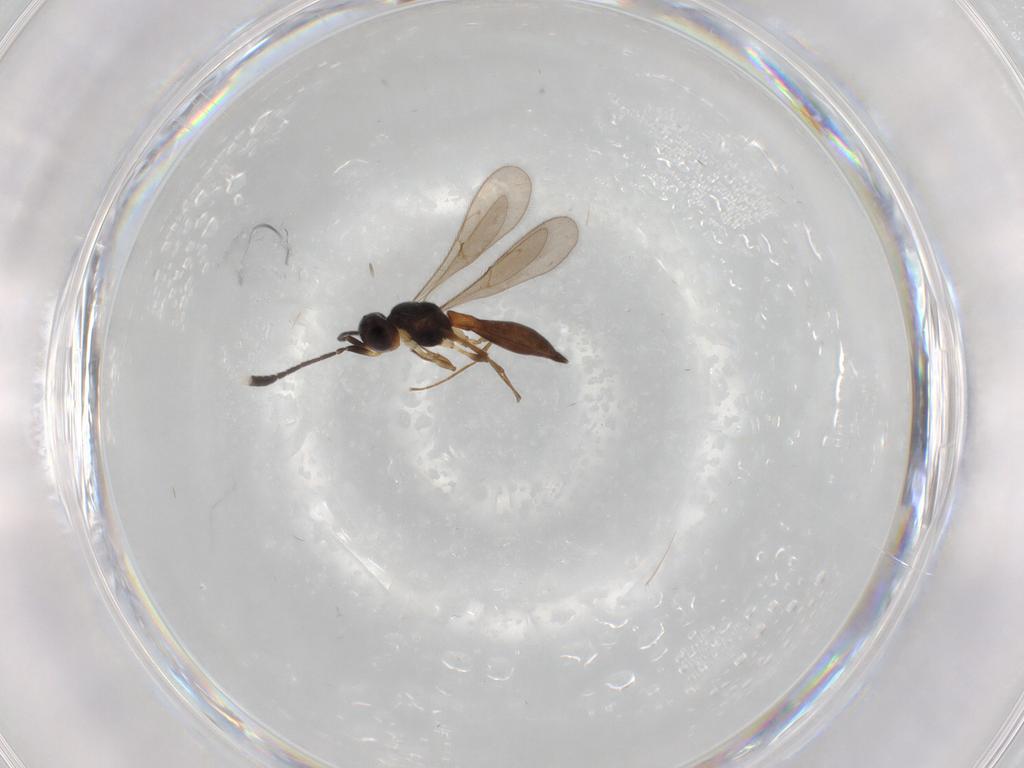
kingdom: Animalia
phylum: Arthropoda
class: Insecta
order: Hymenoptera
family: Scelionidae
